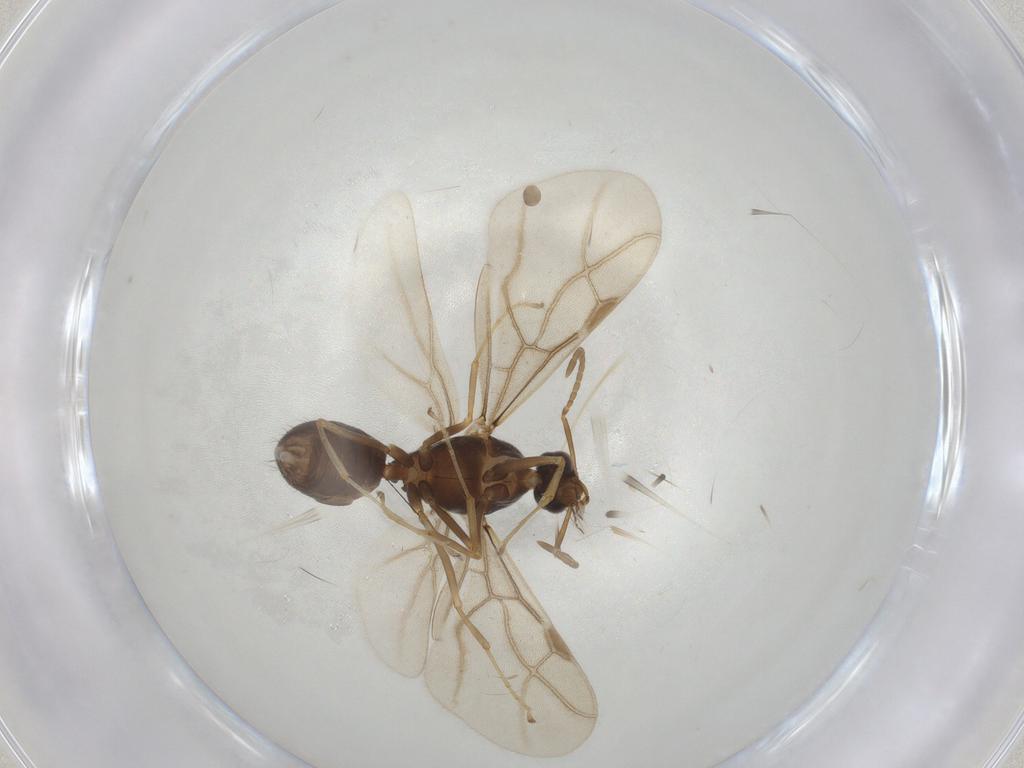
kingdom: Animalia
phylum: Arthropoda
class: Insecta
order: Hymenoptera
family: Formicidae
